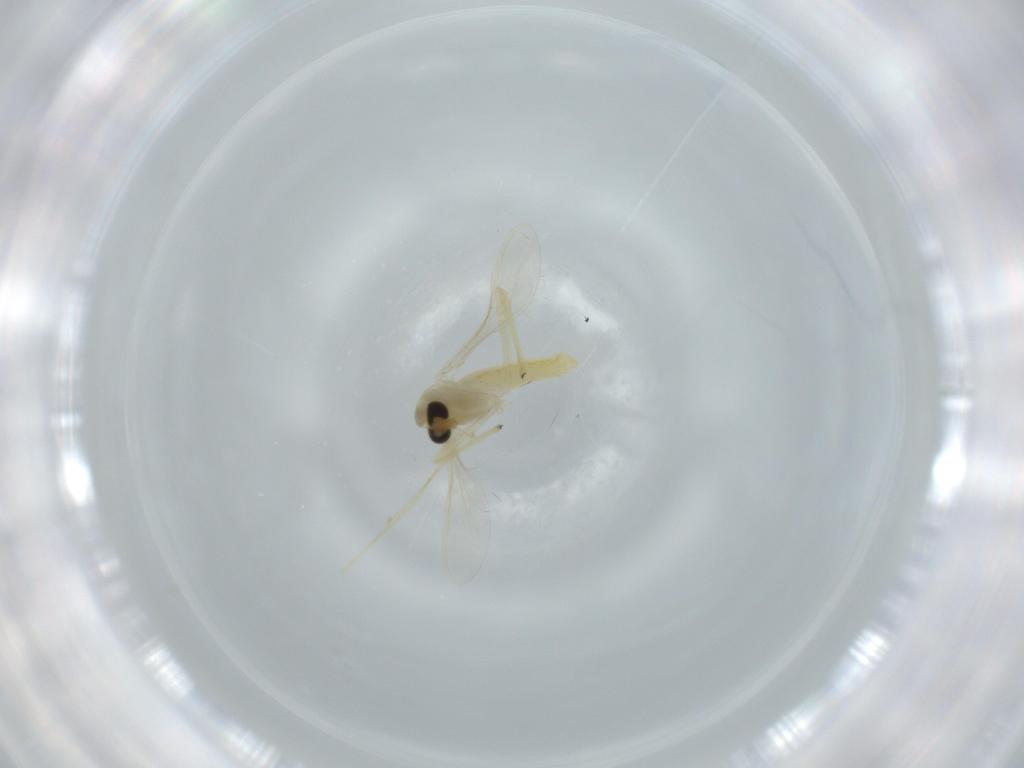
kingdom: Animalia
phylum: Arthropoda
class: Insecta
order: Diptera
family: Chironomidae
